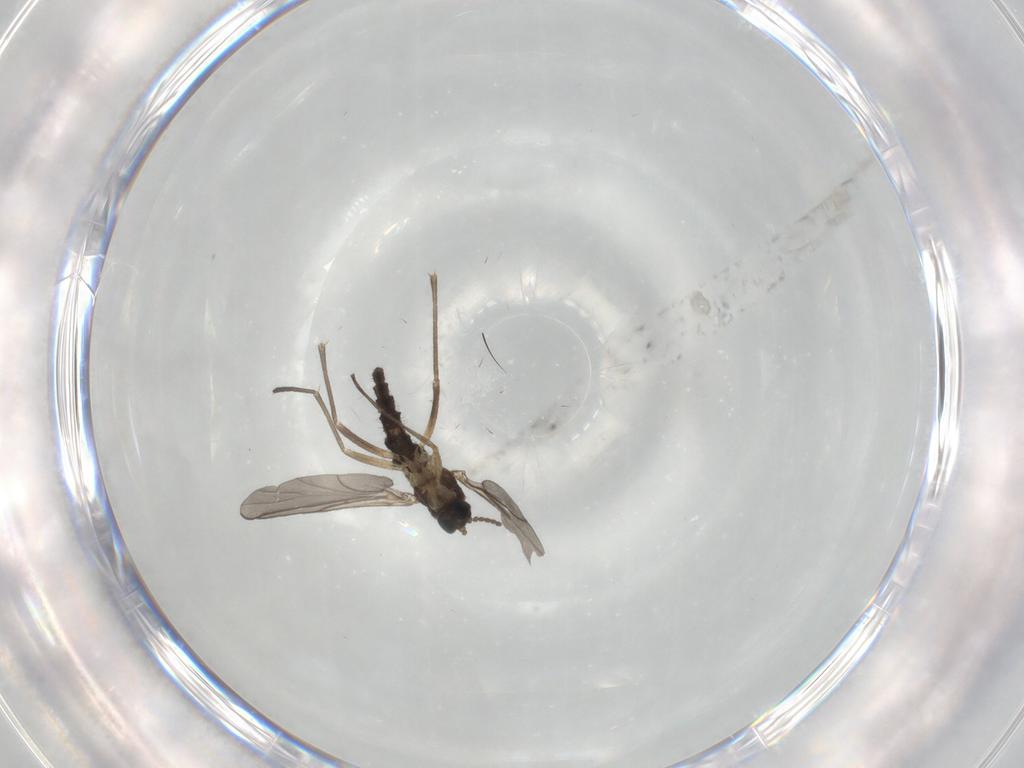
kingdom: Animalia
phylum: Arthropoda
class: Insecta
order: Diptera
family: Sciaridae
